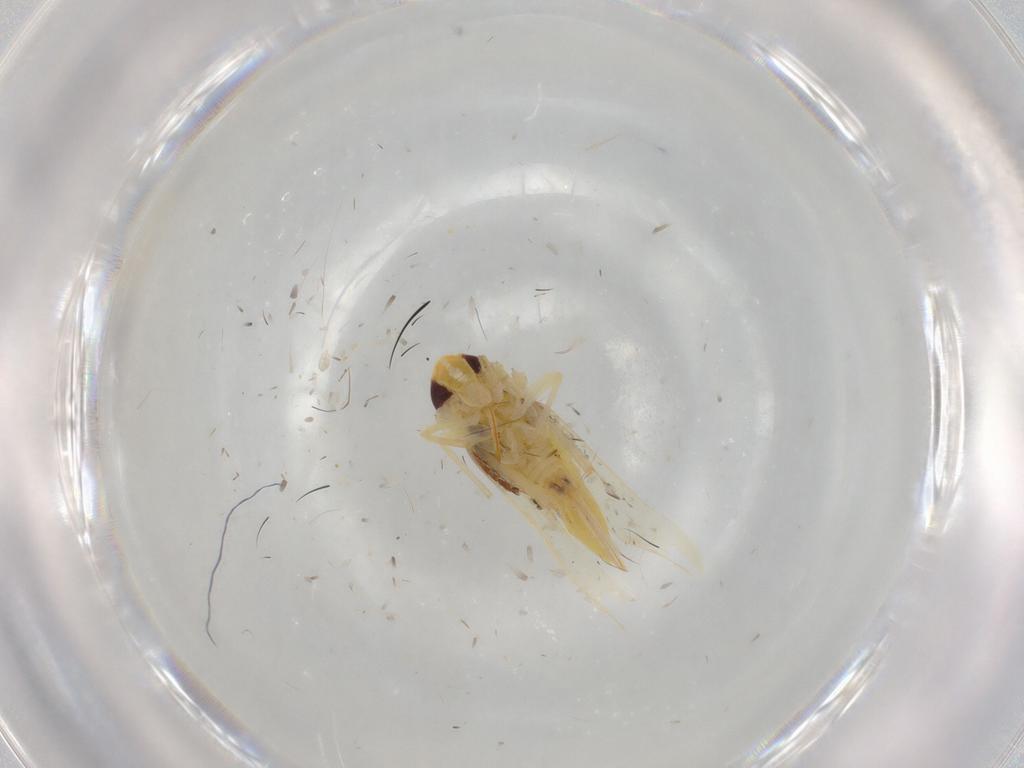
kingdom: Animalia
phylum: Arthropoda
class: Insecta
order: Hemiptera
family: Cicadellidae
